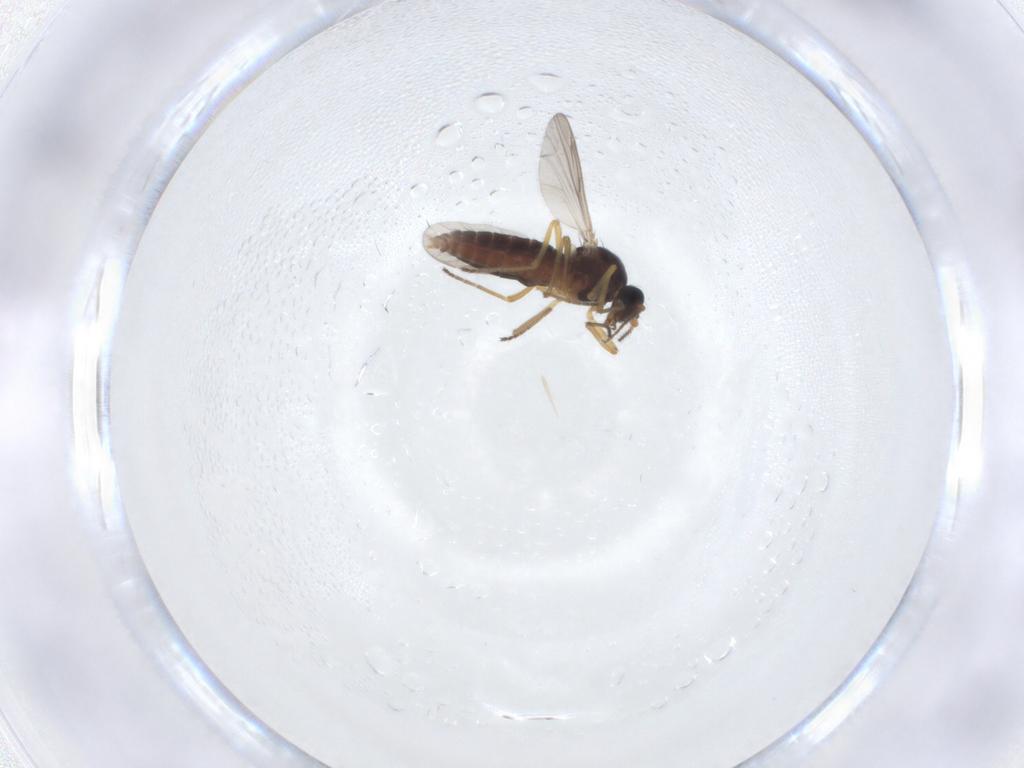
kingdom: Animalia
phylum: Arthropoda
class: Insecta
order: Diptera
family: Ceratopogonidae
